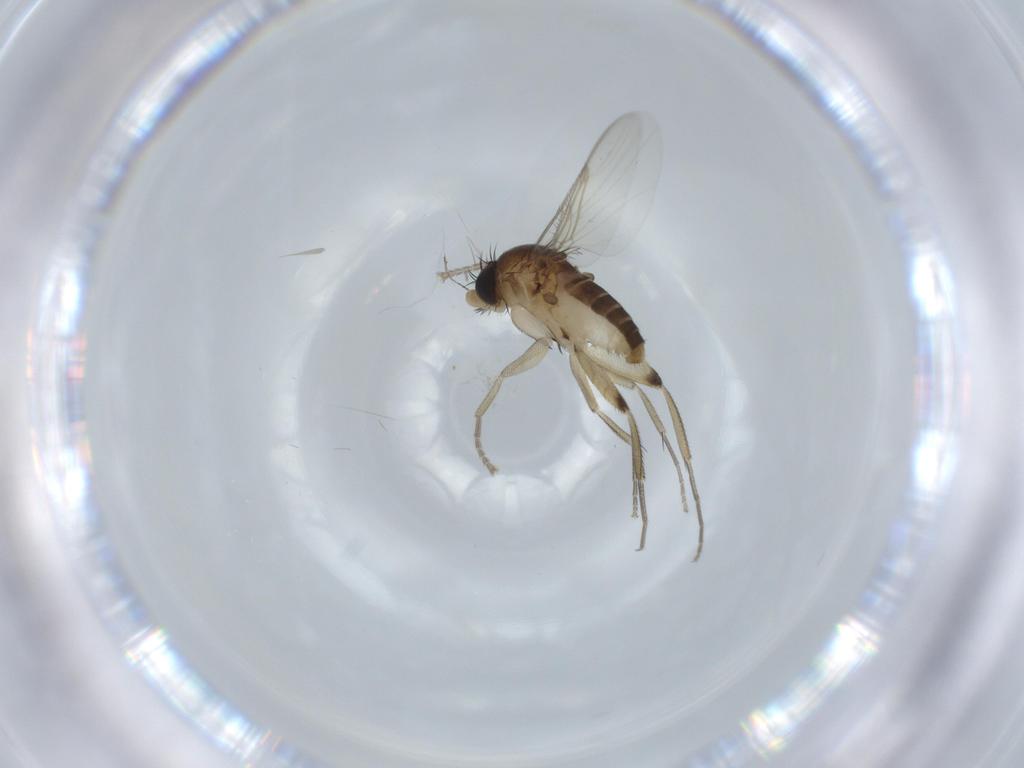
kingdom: Animalia
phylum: Arthropoda
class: Insecta
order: Diptera
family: Phoridae
